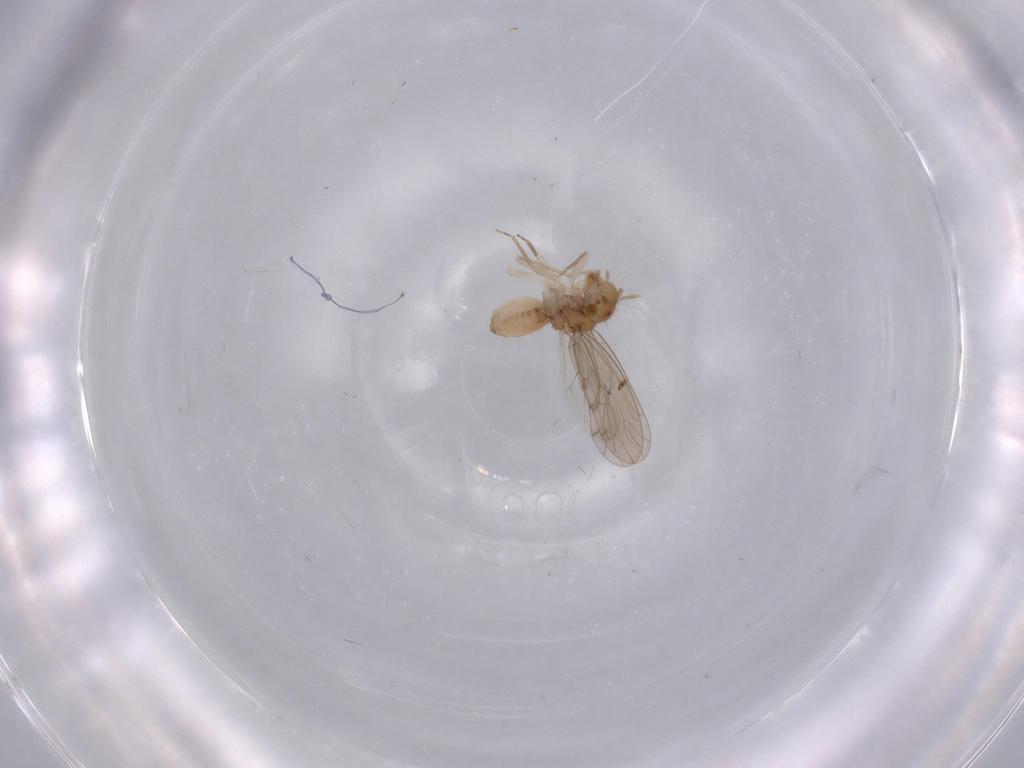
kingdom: Animalia
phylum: Arthropoda
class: Insecta
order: Psocodea
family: Ectopsocidae
